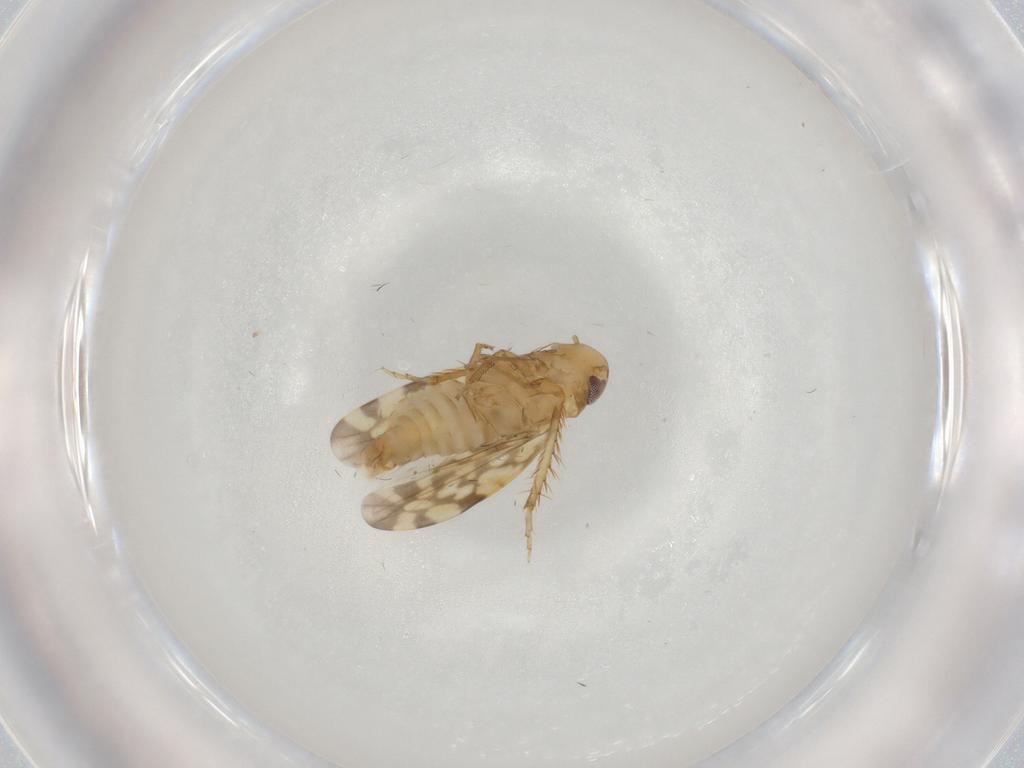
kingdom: Animalia
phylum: Arthropoda
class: Insecta
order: Hemiptera
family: Cicadellidae
